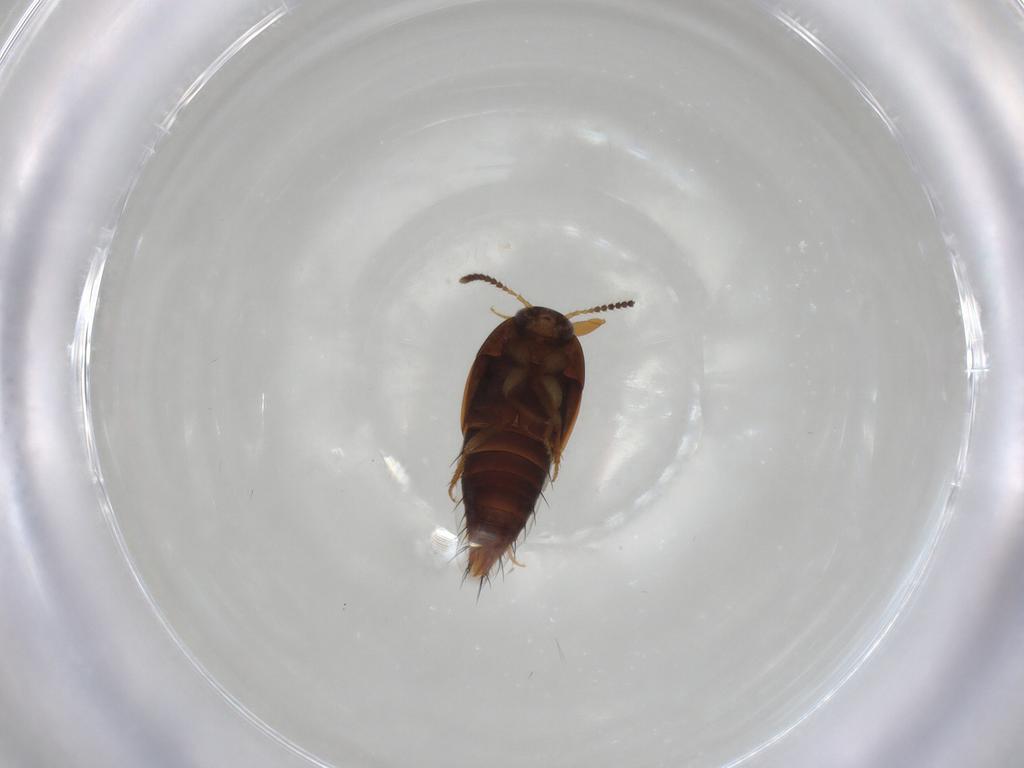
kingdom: Animalia
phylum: Arthropoda
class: Insecta
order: Coleoptera
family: Staphylinidae
